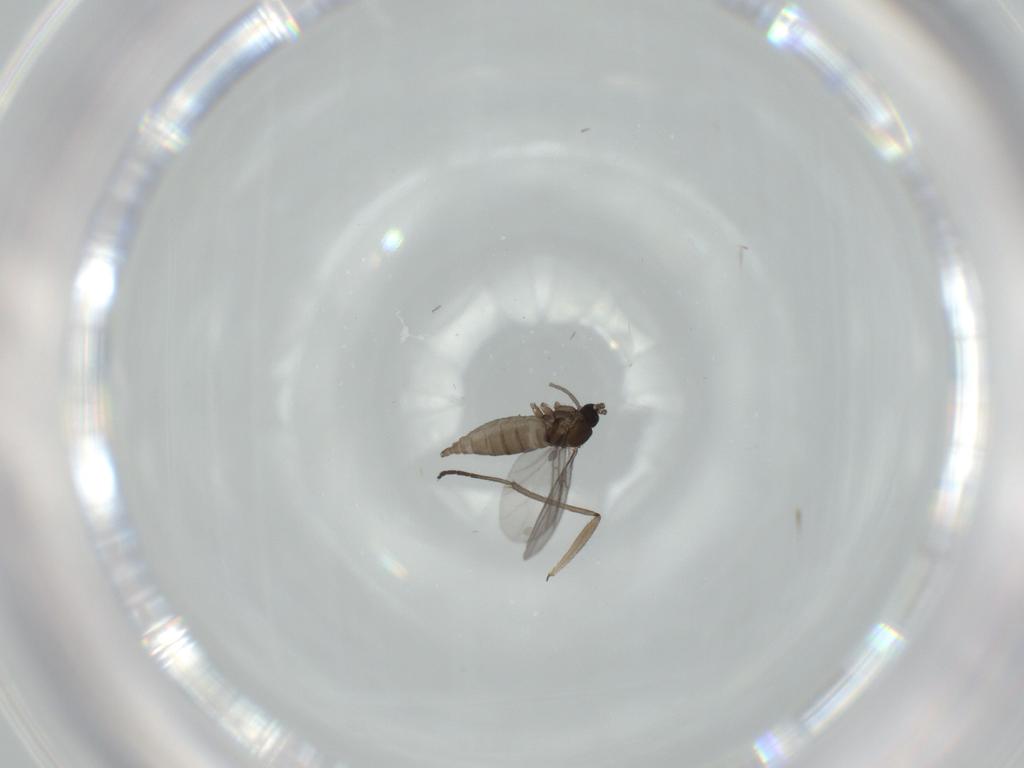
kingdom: Animalia
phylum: Arthropoda
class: Insecta
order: Diptera
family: Sciaridae
